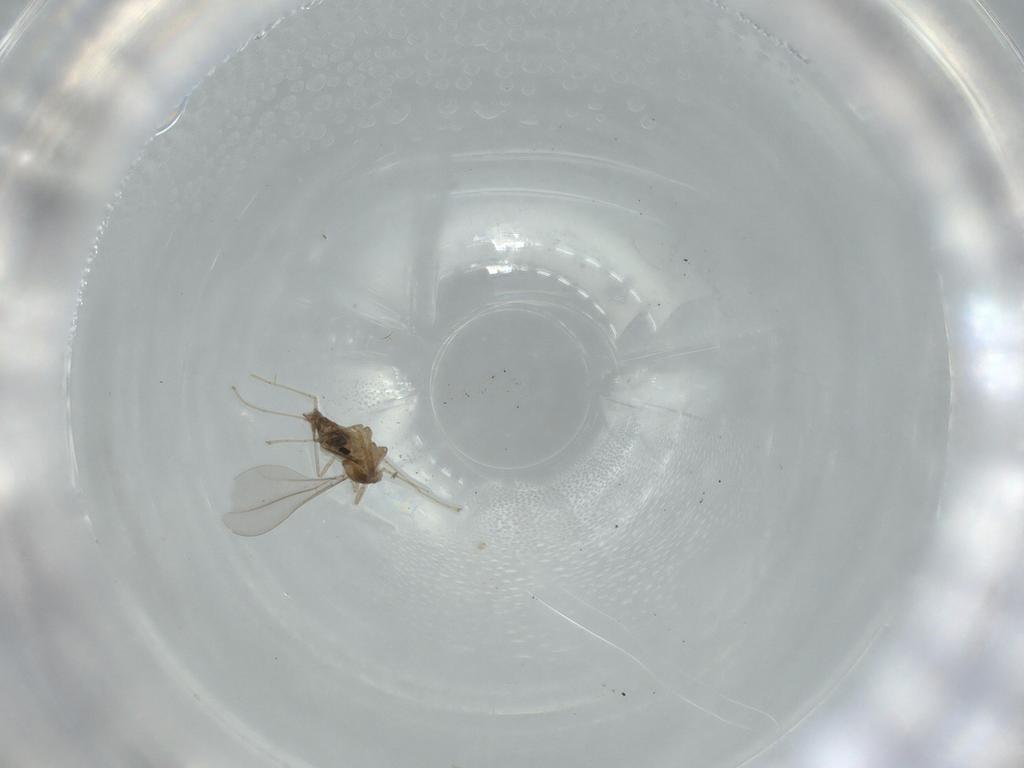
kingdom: Animalia
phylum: Arthropoda
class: Insecta
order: Diptera
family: Cecidomyiidae
